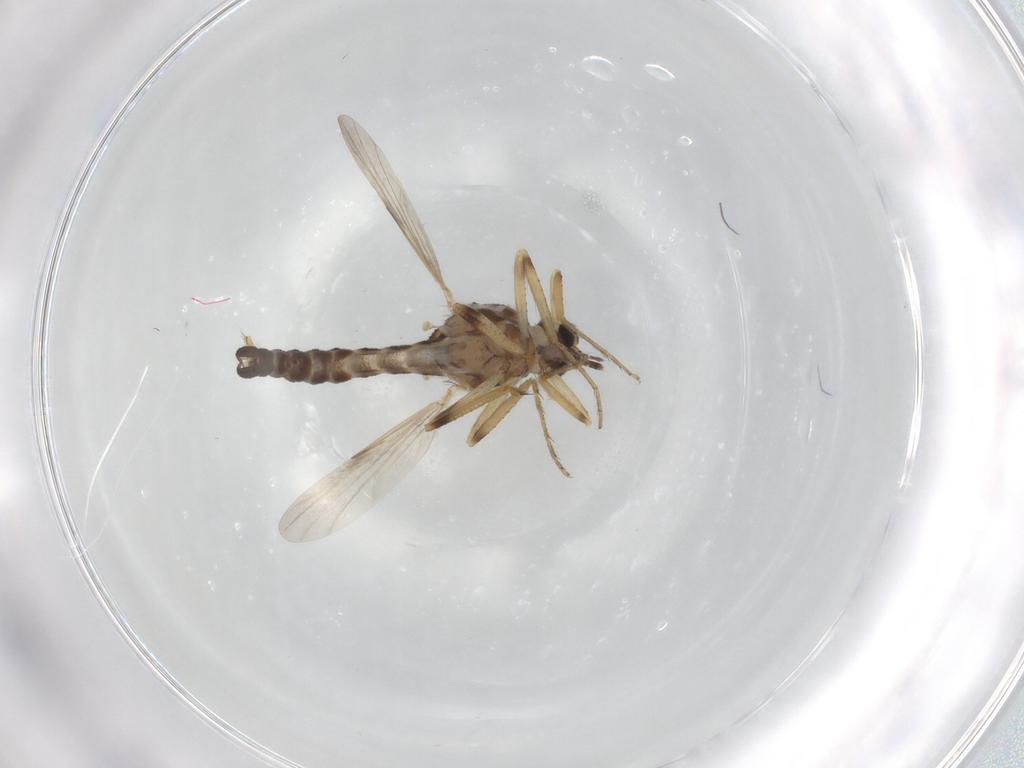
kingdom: Animalia
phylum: Arthropoda
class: Insecta
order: Diptera
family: Ceratopogonidae
